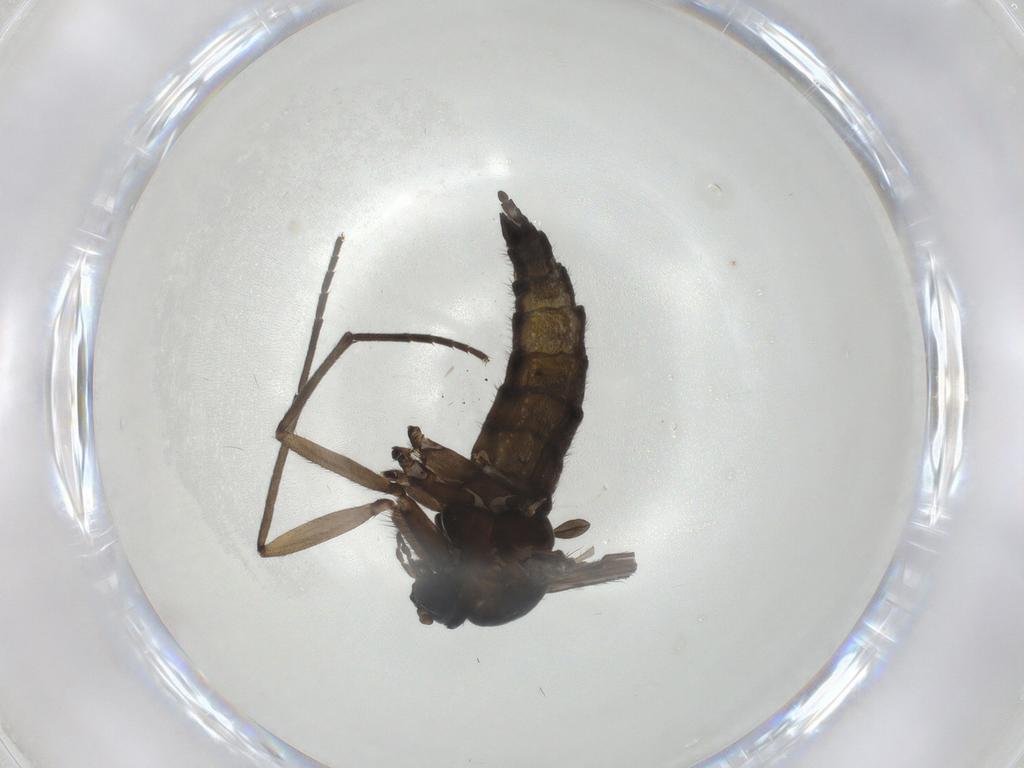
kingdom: Animalia
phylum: Arthropoda
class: Insecta
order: Diptera
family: Sciaridae
